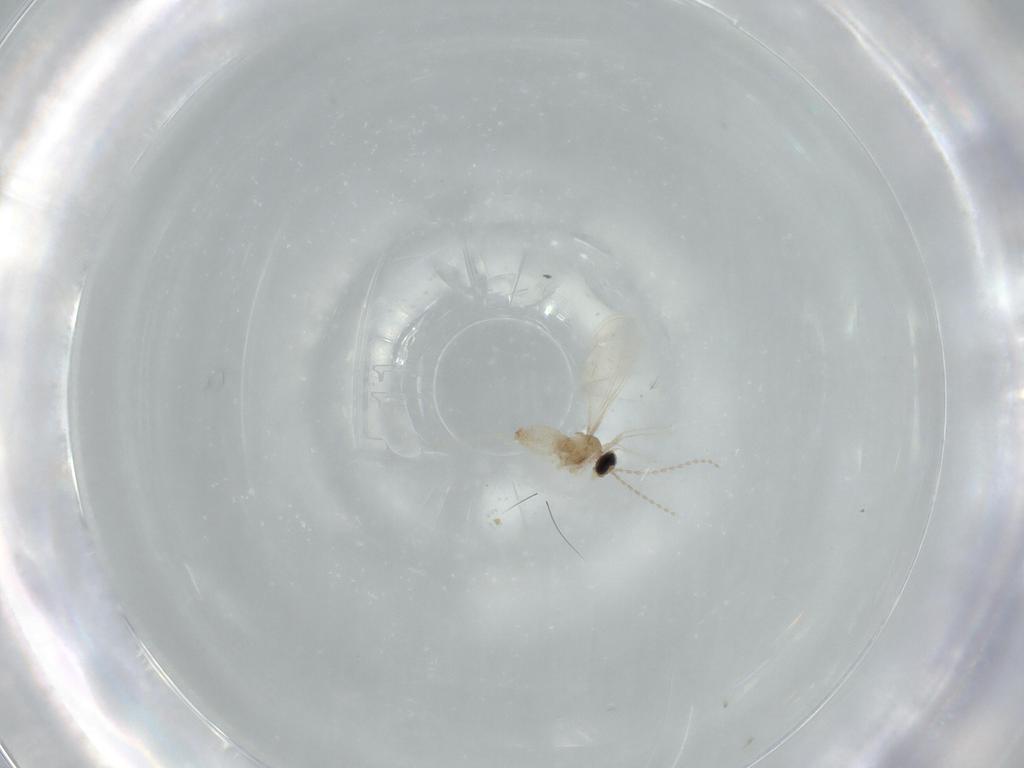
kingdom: Animalia
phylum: Arthropoda
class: Insecta
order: Diptera
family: Cecidomyiidae
